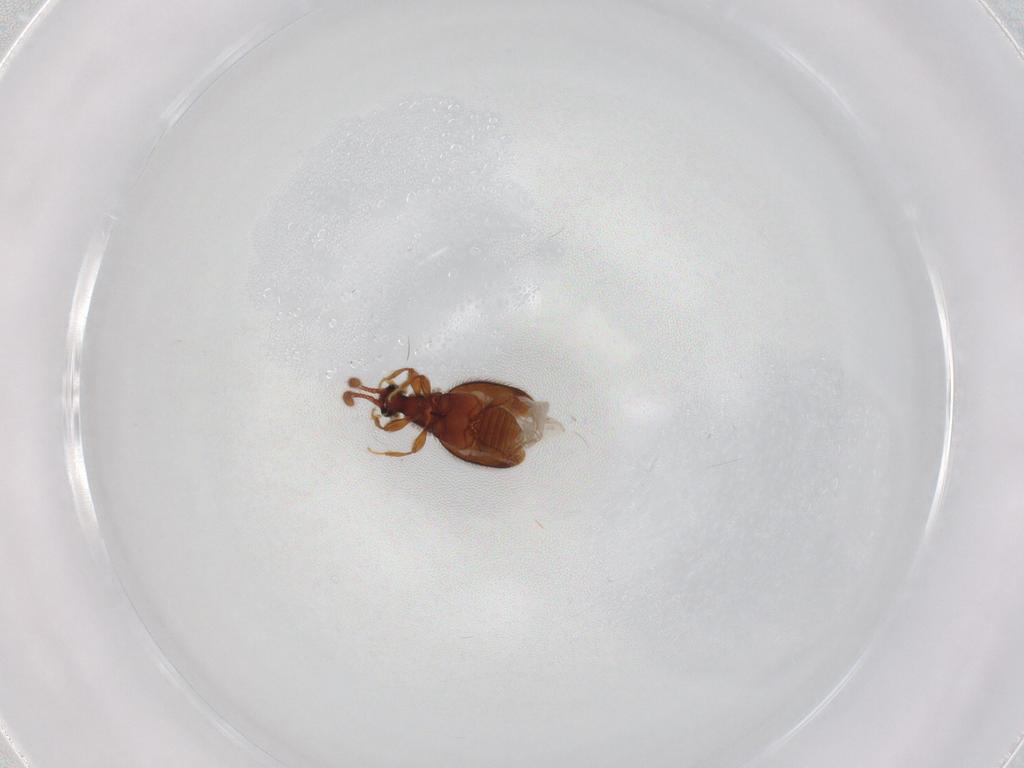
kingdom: Animalia
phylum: Arthropoda
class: Insecta
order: Coleoptera
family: Staphylinidae
